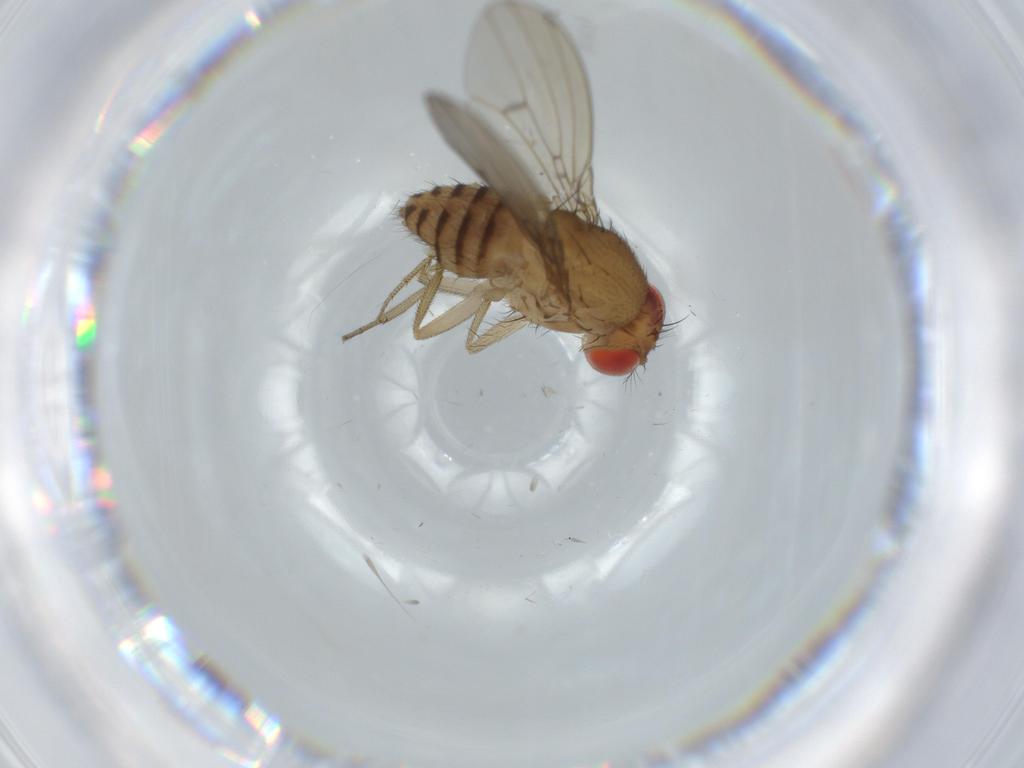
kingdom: Animalia
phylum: Arthropoda
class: Insecta
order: Diptera
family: Drosophilidae
